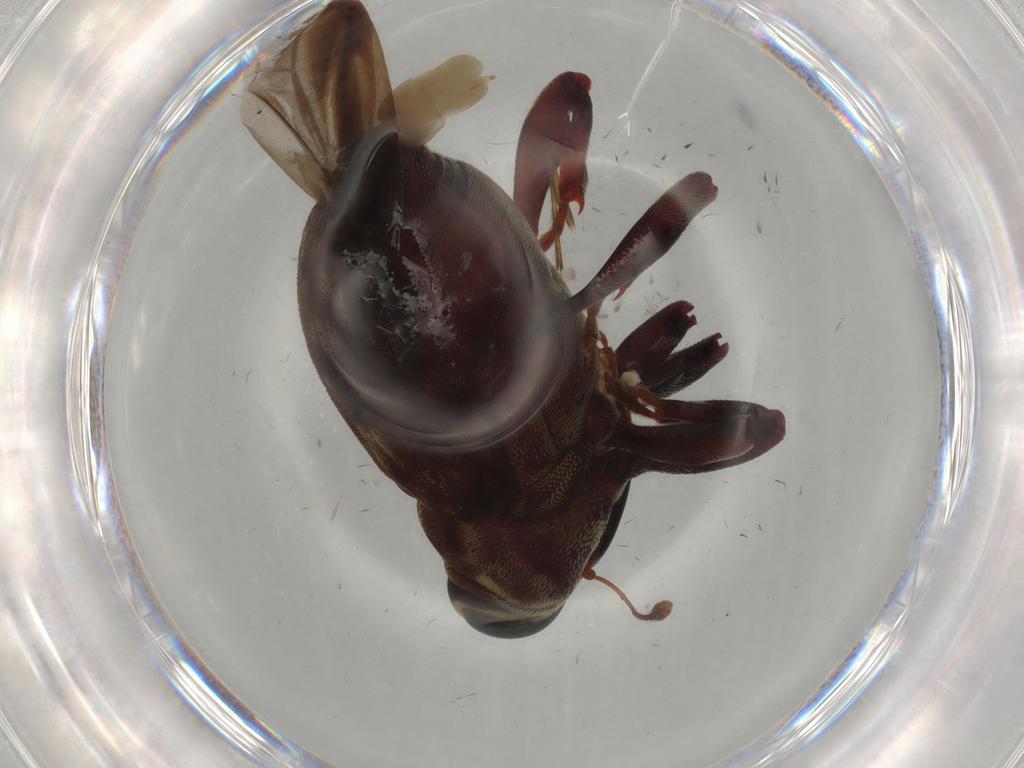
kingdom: Animalia
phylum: Arthropoda
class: Insecta
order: Coleoptera
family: Curculionidae
